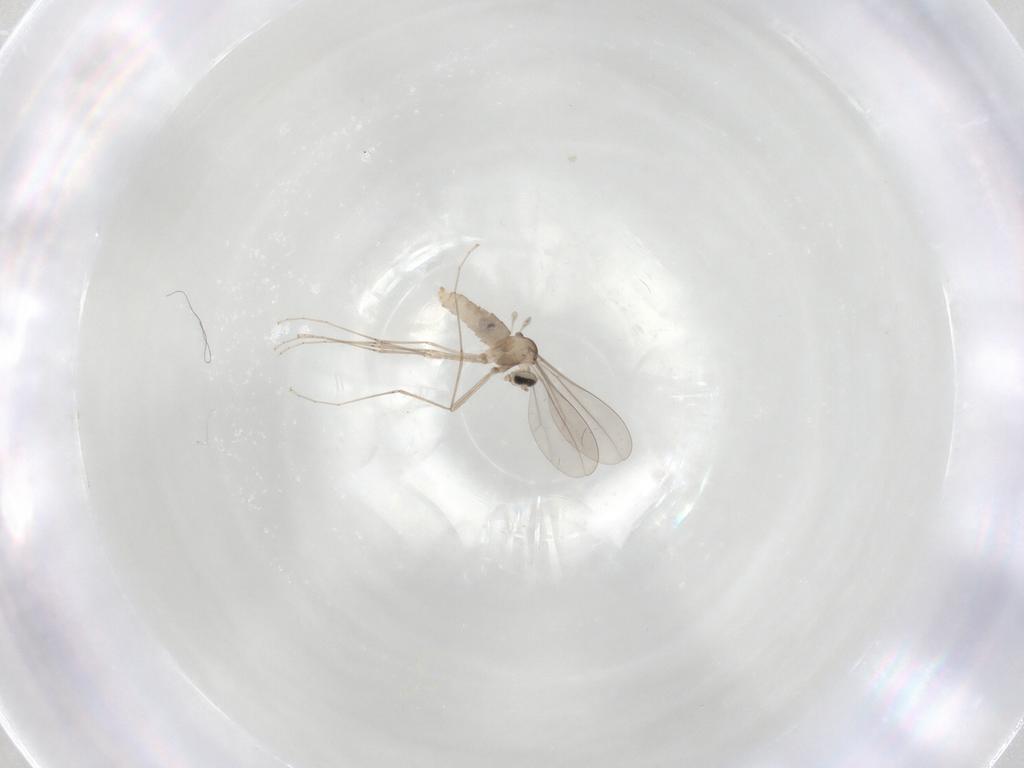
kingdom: Animalia
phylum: Arthropoda
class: Insecta
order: Diptera
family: Cecidomyiidae
